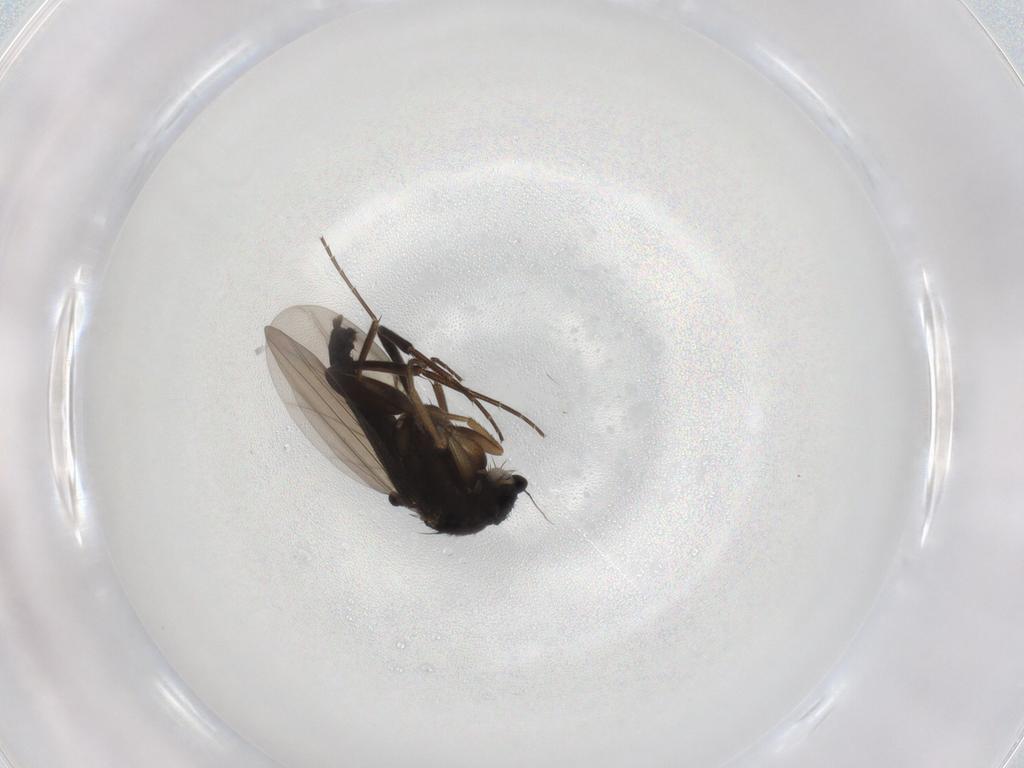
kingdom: Animalia
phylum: Arthropoda
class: Insecta
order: Diptera
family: Phoridae
